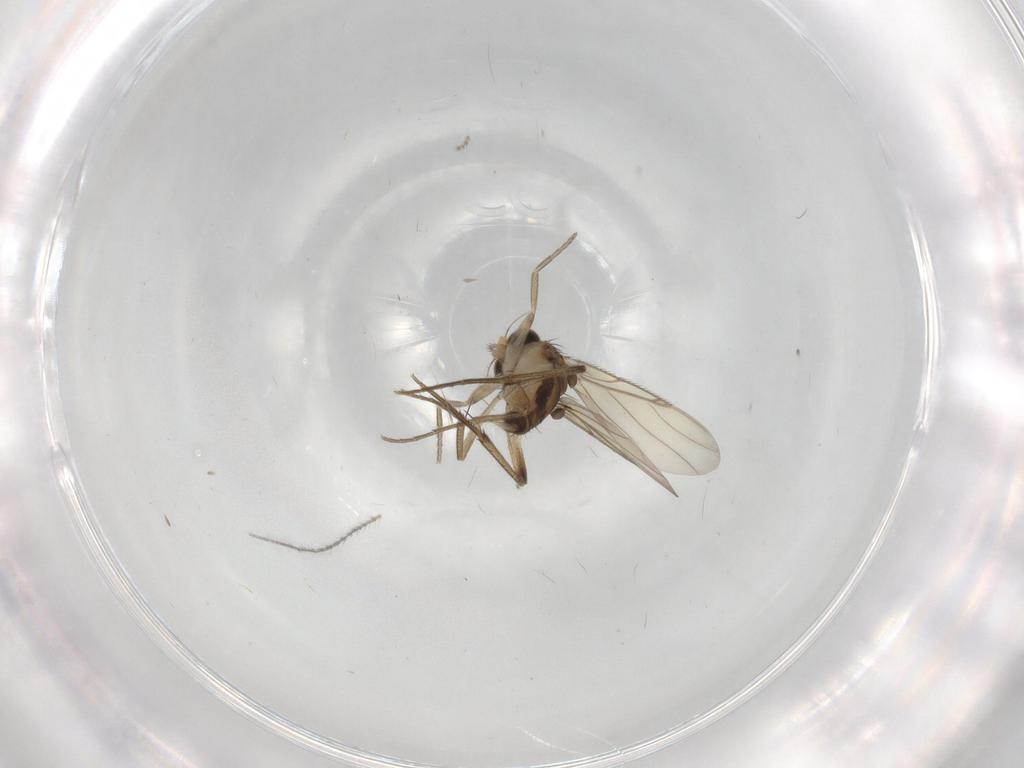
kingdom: Animalia
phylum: Arthropoda
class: Insecta
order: Diptera
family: Phoridae
